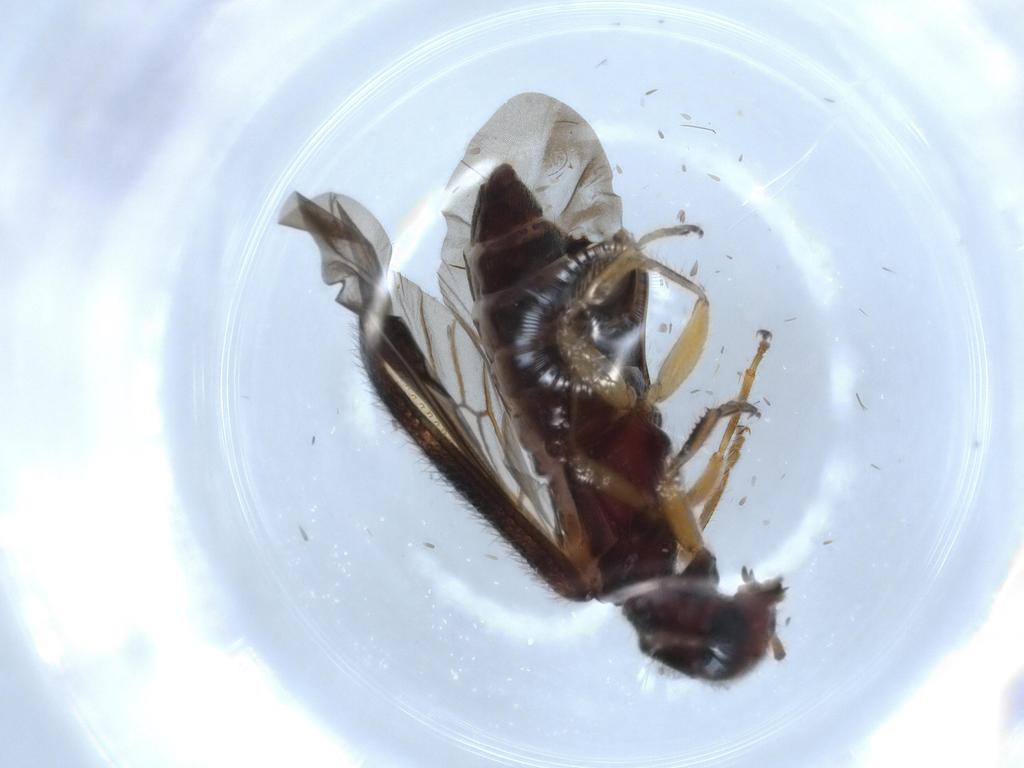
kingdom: Animalia
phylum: Arthropoda
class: Insecta
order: Coleoptera
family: Cleridae
